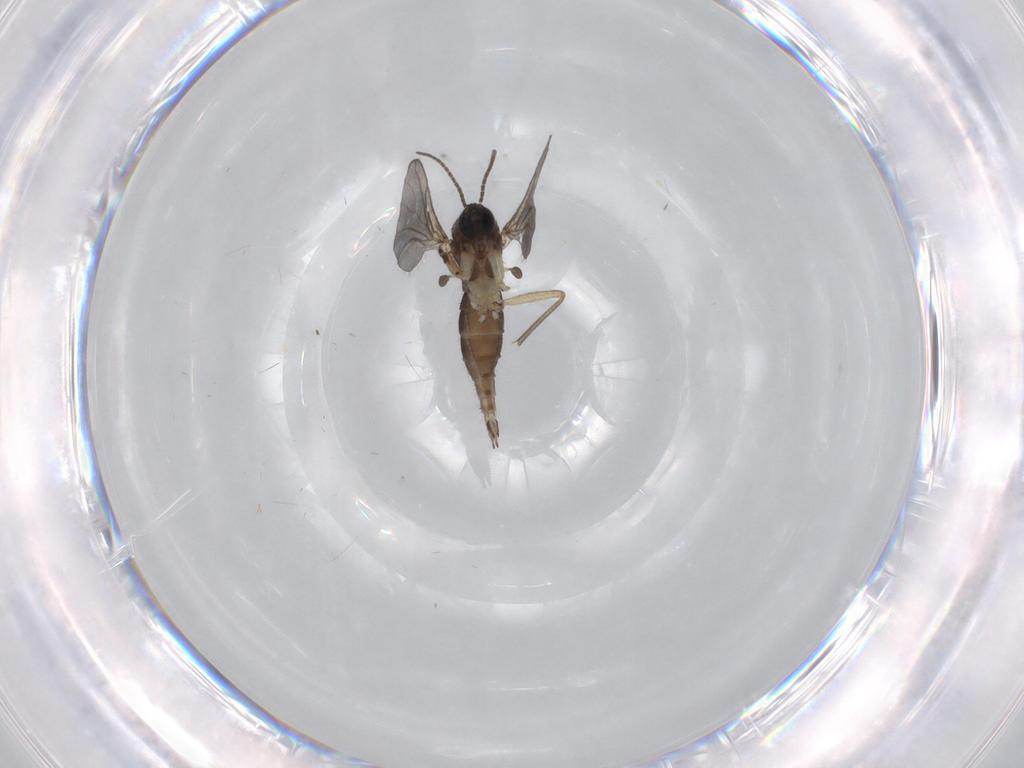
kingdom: Animalia
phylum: Arthropoda
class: Insecta
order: Diptera
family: Sciaridae
